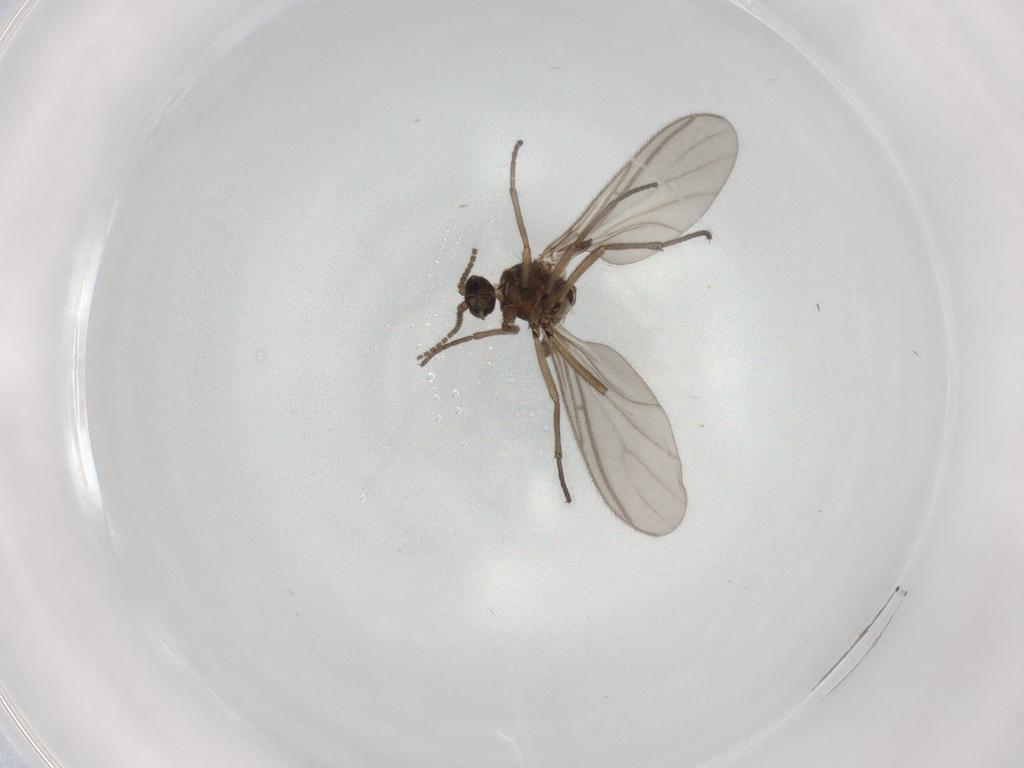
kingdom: Animalia
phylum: Arthropoda
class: Insecta
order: Diptera
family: Sciaridae
